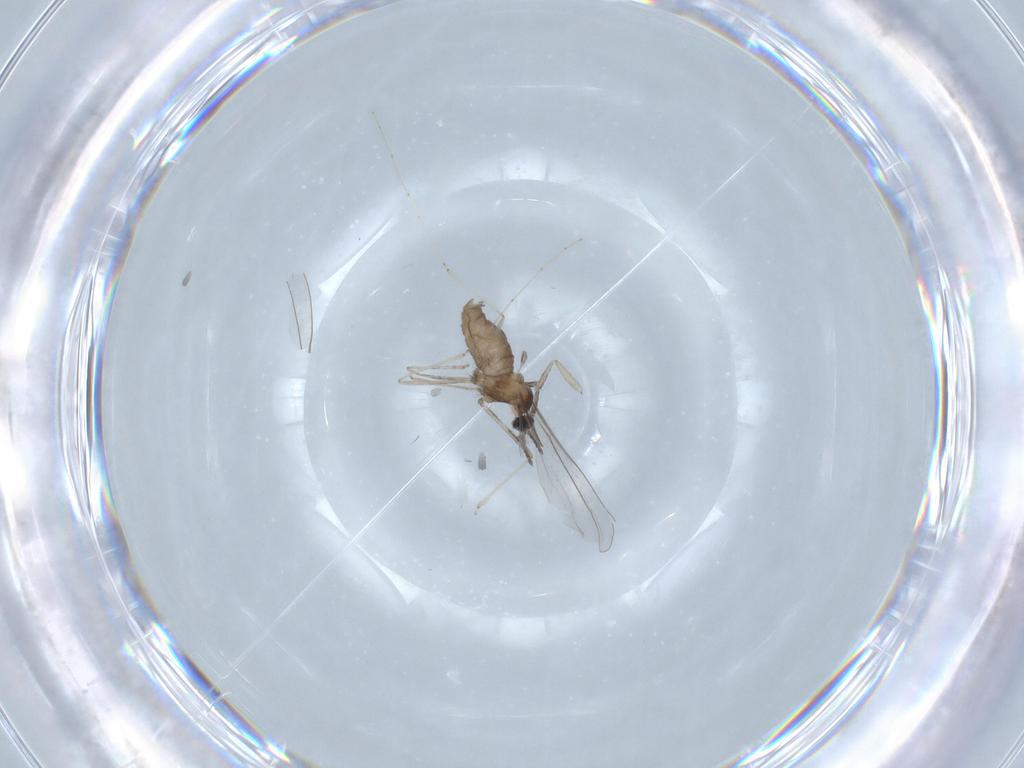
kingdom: Animalia
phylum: Arthropoda
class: Insecta
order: Diptera
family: Cecidomyiidae
